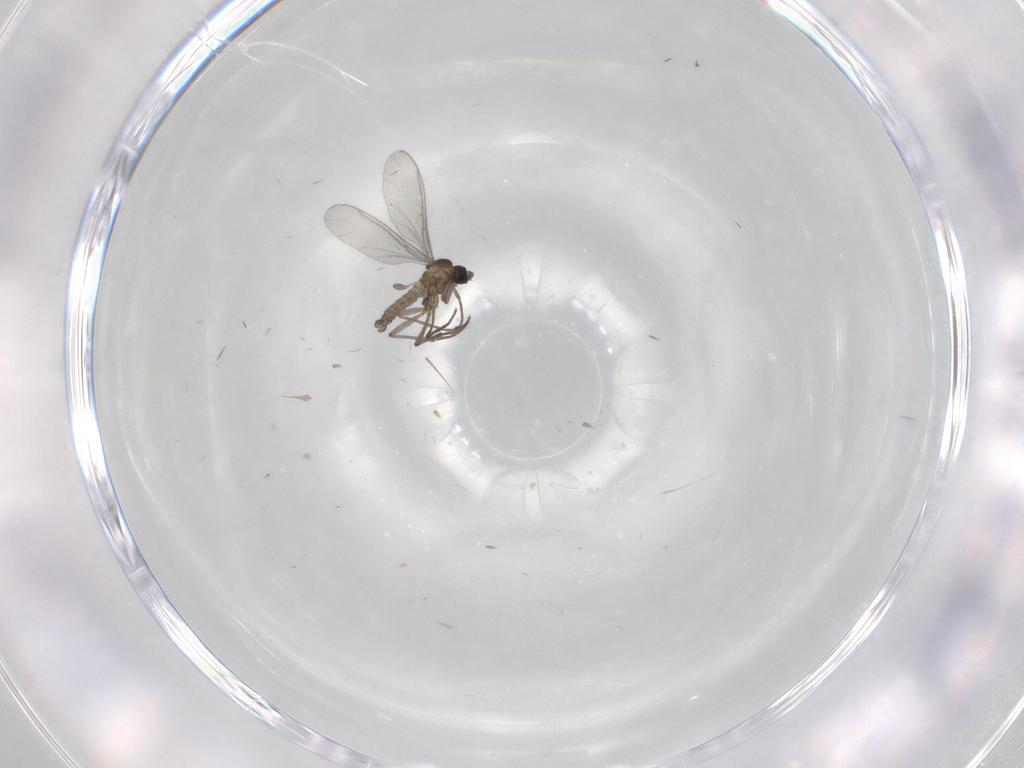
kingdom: Animalia
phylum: Arthropoda
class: Insecta
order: Diptera
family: Sciaridae
